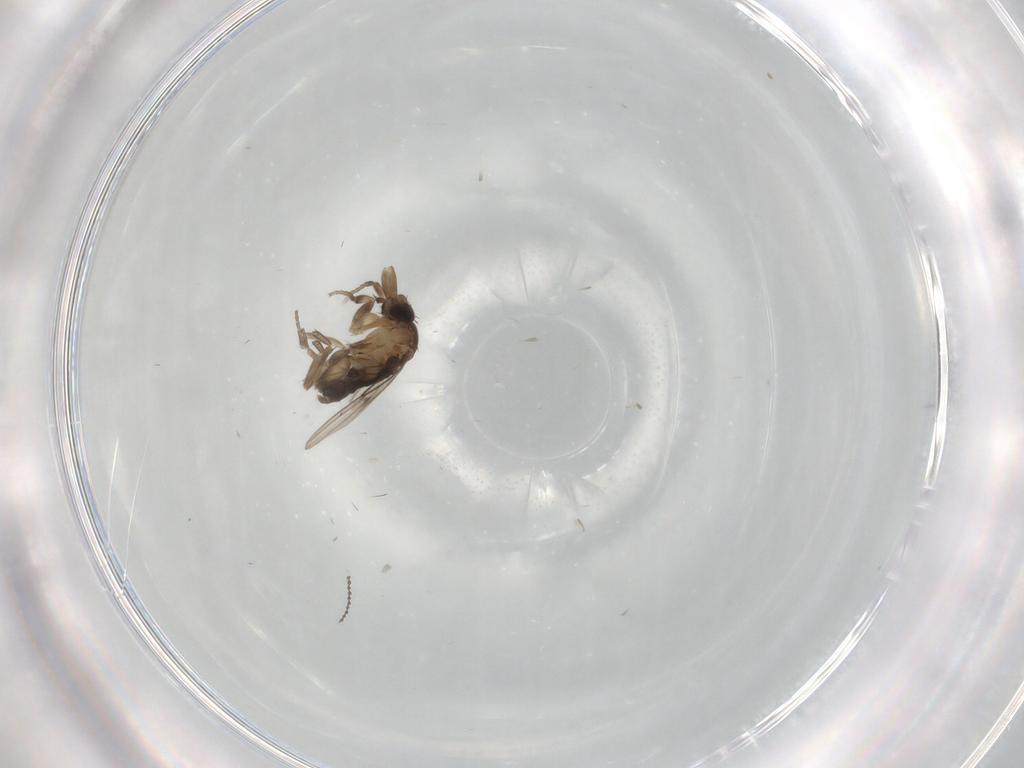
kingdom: Animalia
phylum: Arthropoda
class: Insecta
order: Diptera
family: Phoridae
